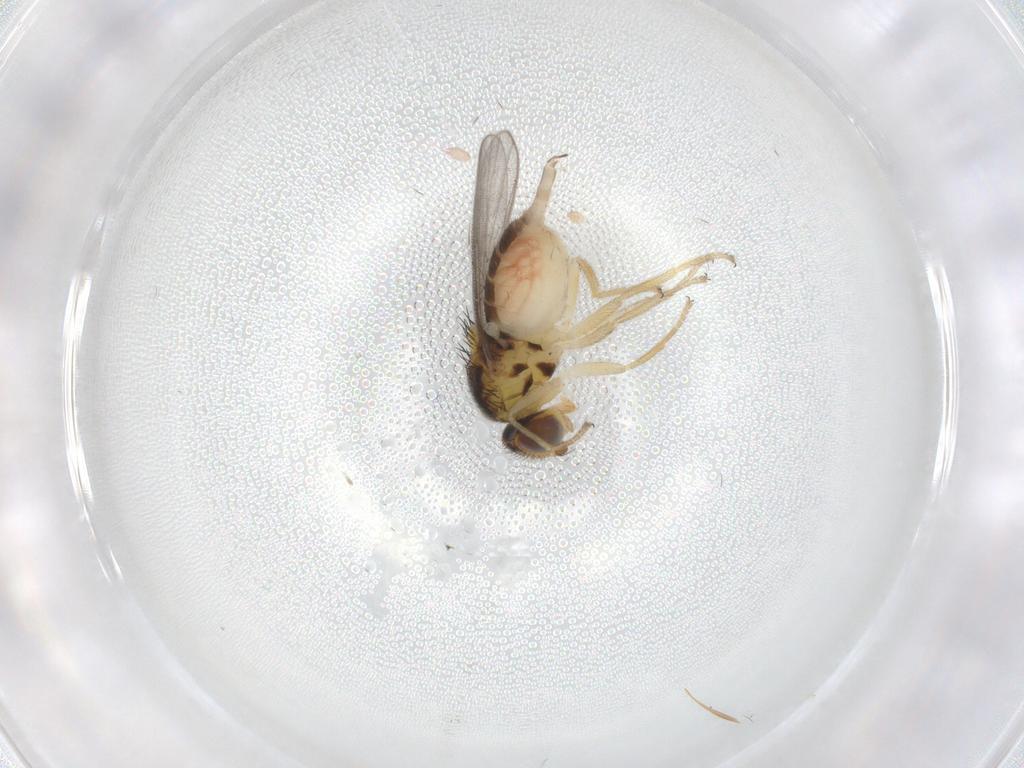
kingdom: Animalia
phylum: Arthropoda
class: Insecta
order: Diptera
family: Chloropidae
